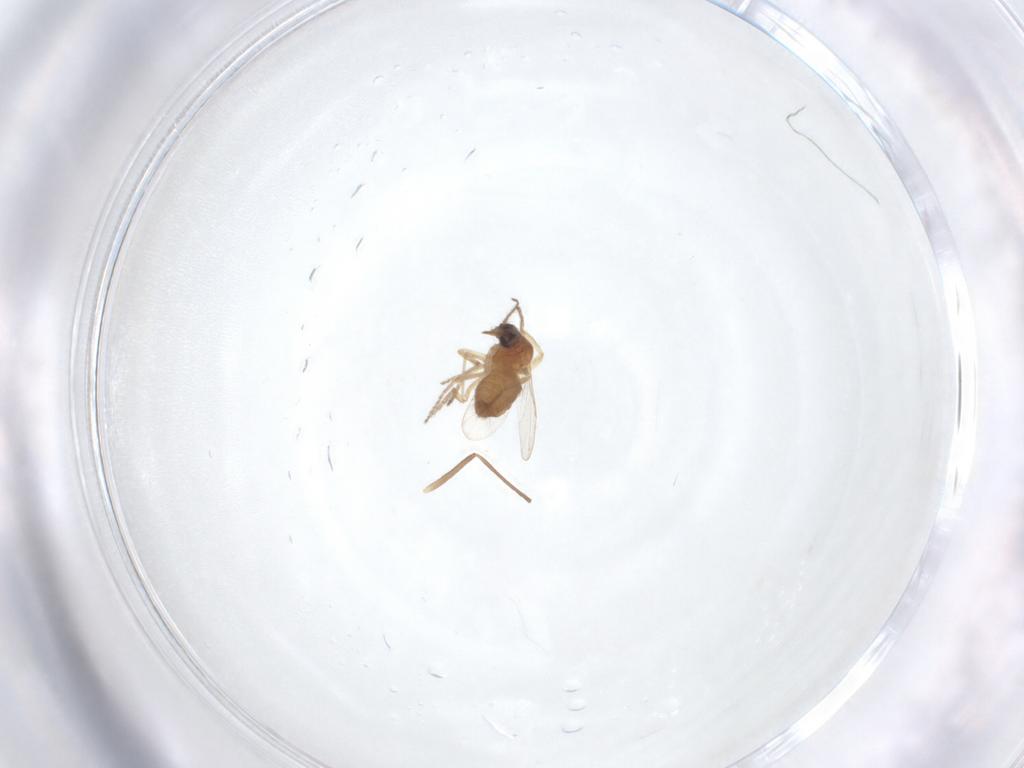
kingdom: Animalia
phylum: Arthropoda
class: Insecta
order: Diptera
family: Ceratopogonidae
